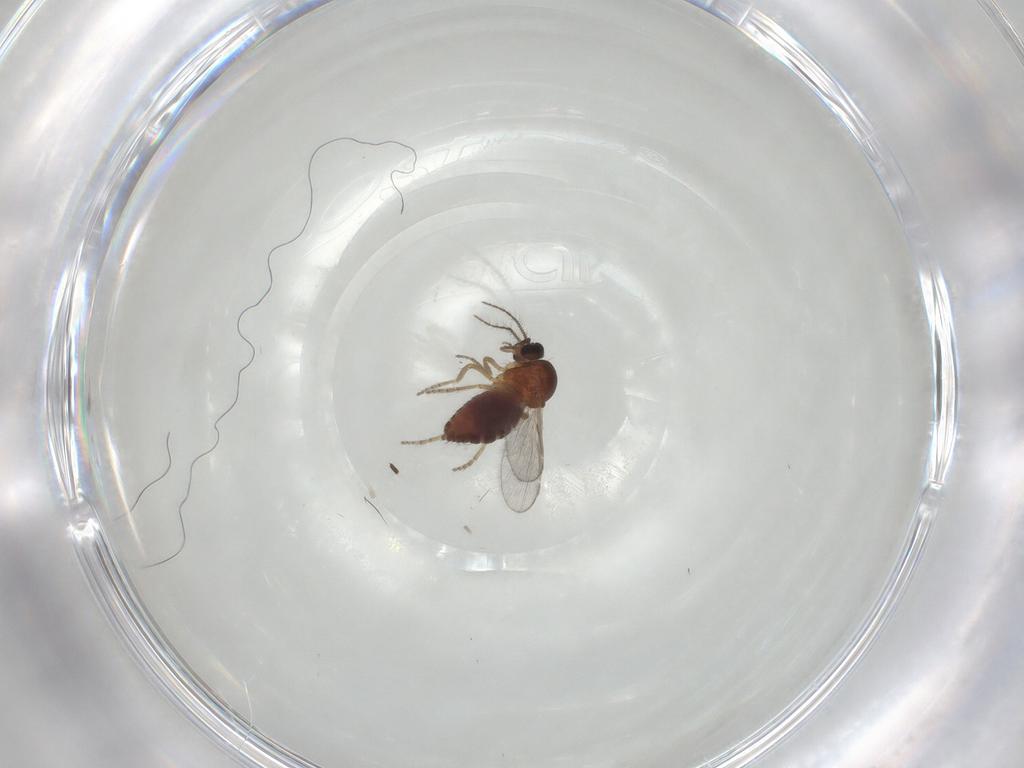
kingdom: Animalia
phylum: Arthropoda
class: Insecta
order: Diptera
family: Ceratopogonidae
